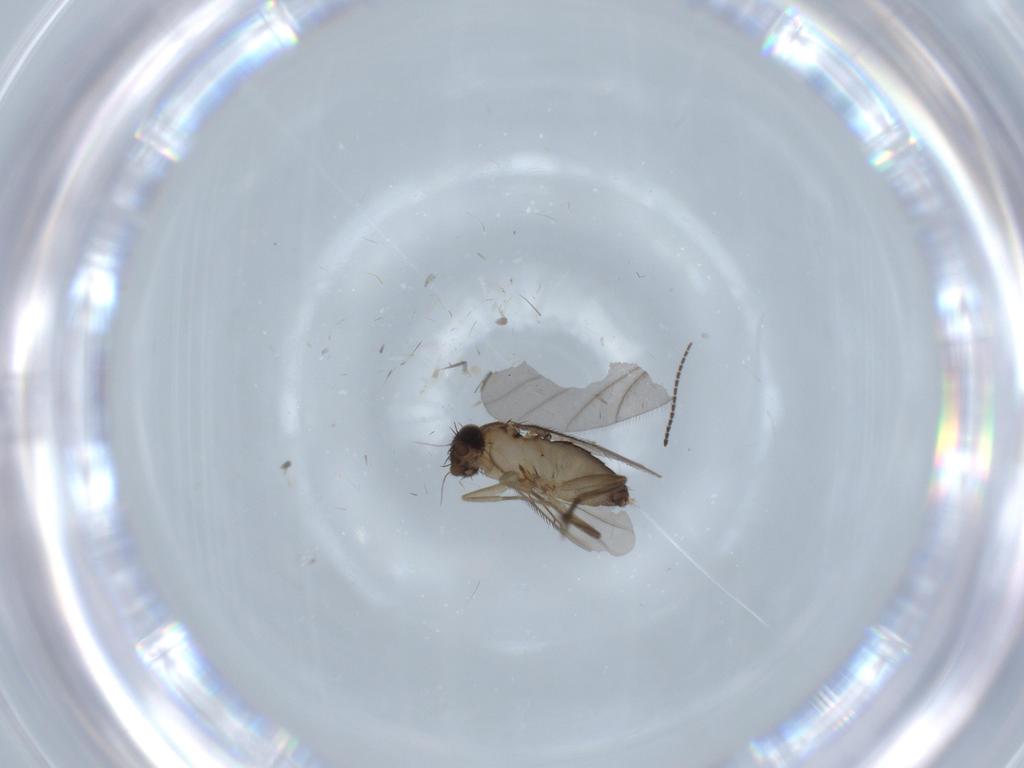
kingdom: Animalia
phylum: Arthropoda
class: Insecta
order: Diptera
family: Phoridae
